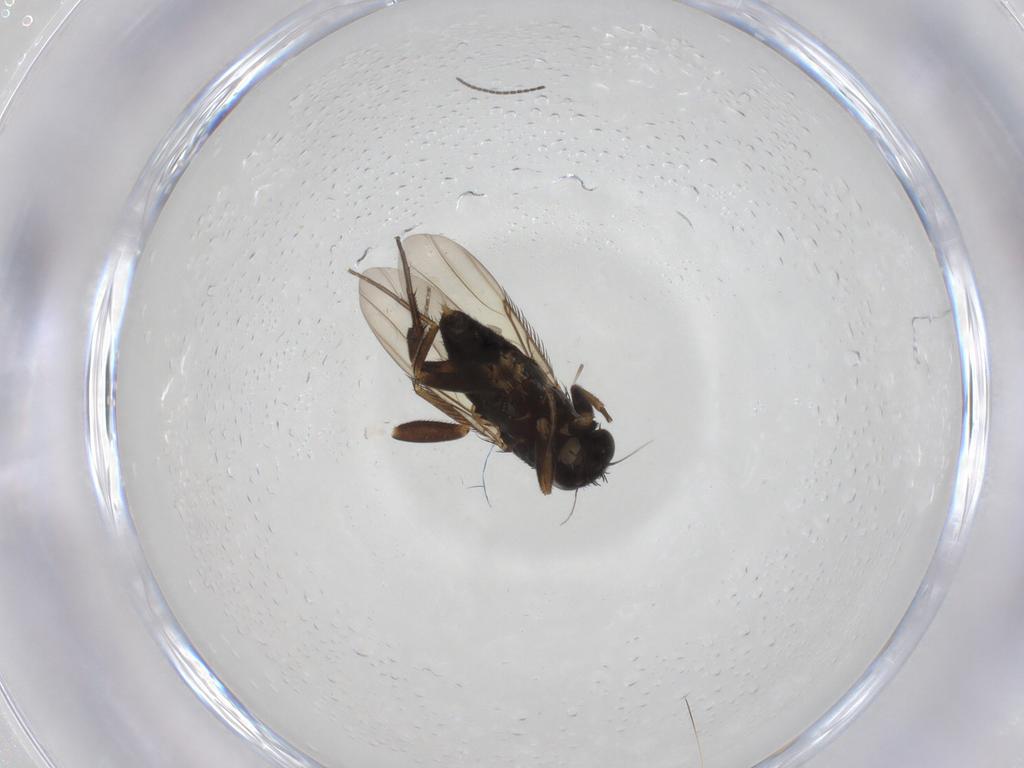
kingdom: Animalia
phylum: Arthropoda
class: Insecta
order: Diptera
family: Phoridae
